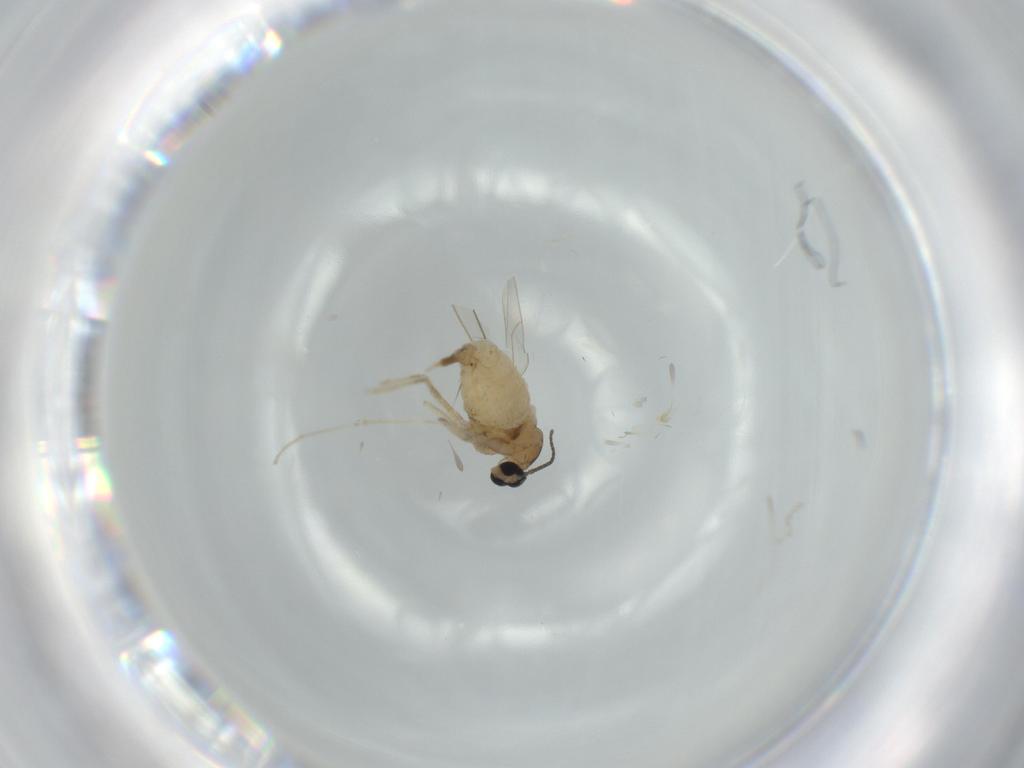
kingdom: Animalia
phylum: Arthropoda
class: Insecta
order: Diptera
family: Cecidomyiidae
